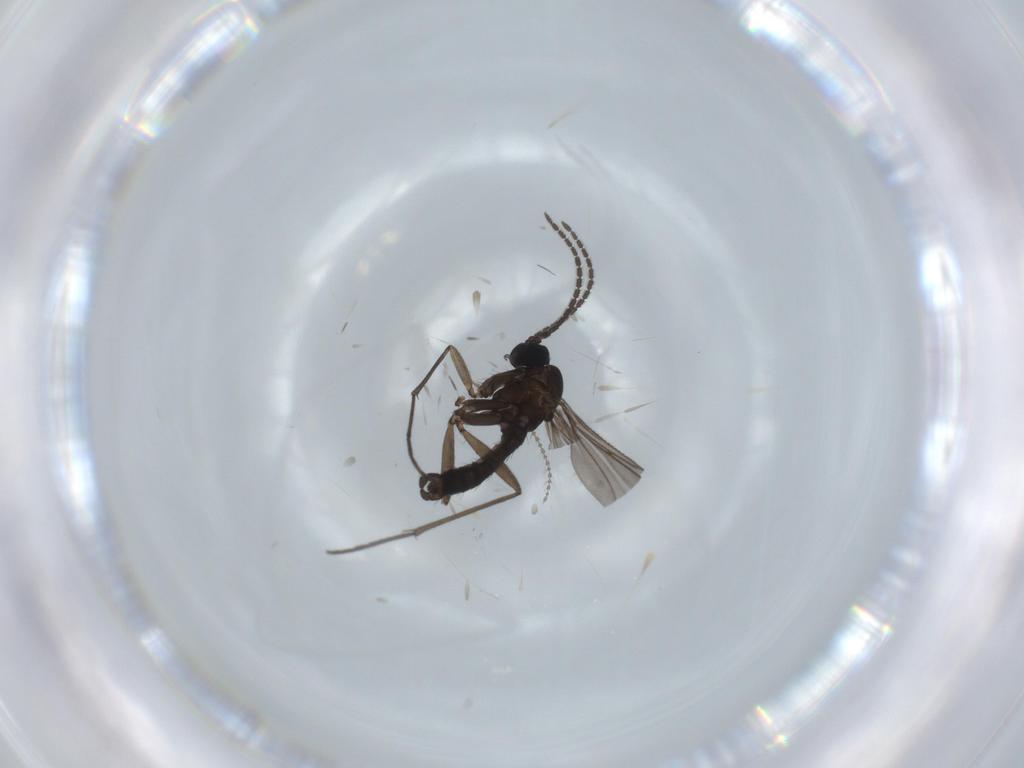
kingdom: Animalia
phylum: Arthropoda
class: Insecta
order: Diptera
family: Sciaridae
